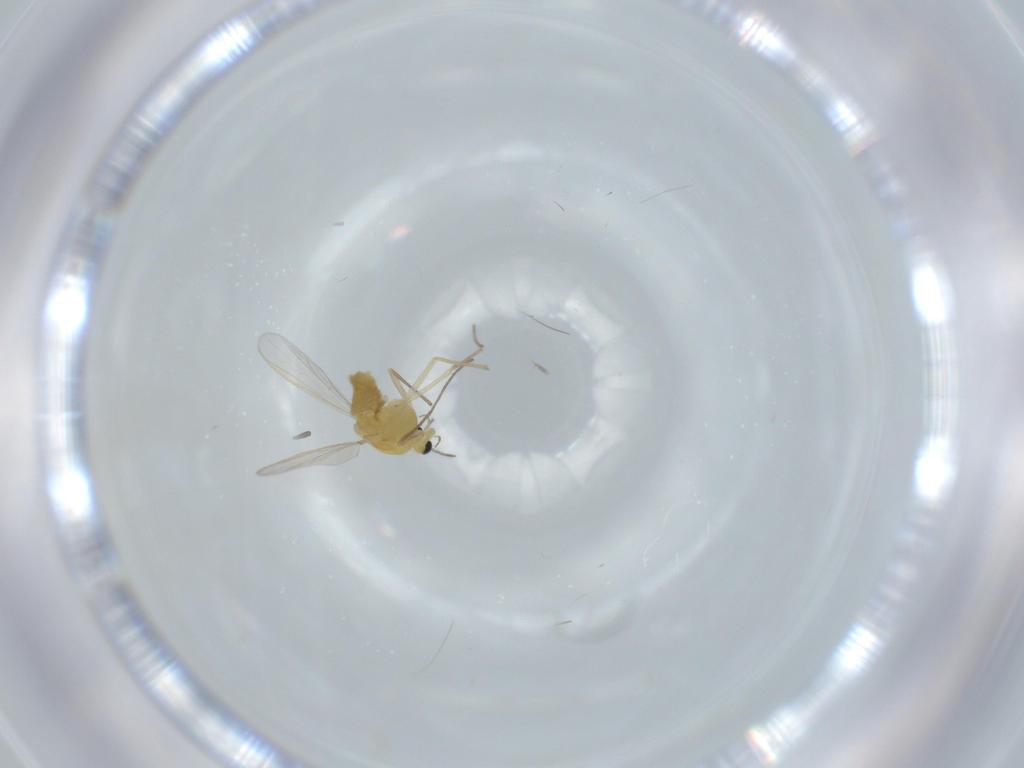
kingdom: Animalia
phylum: Arthropoda
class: Insecta
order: Diptera
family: Chironomidae
